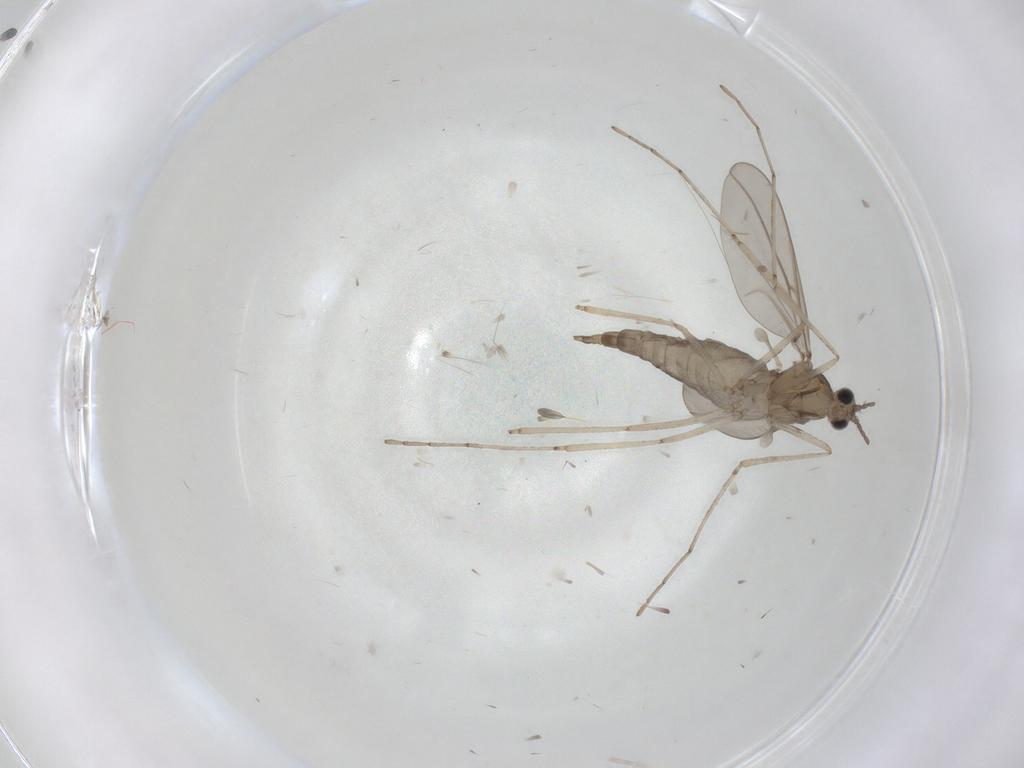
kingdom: Animalia
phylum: Arthropoda
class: Insecta
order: Diptera
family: Cecidomyiidae
